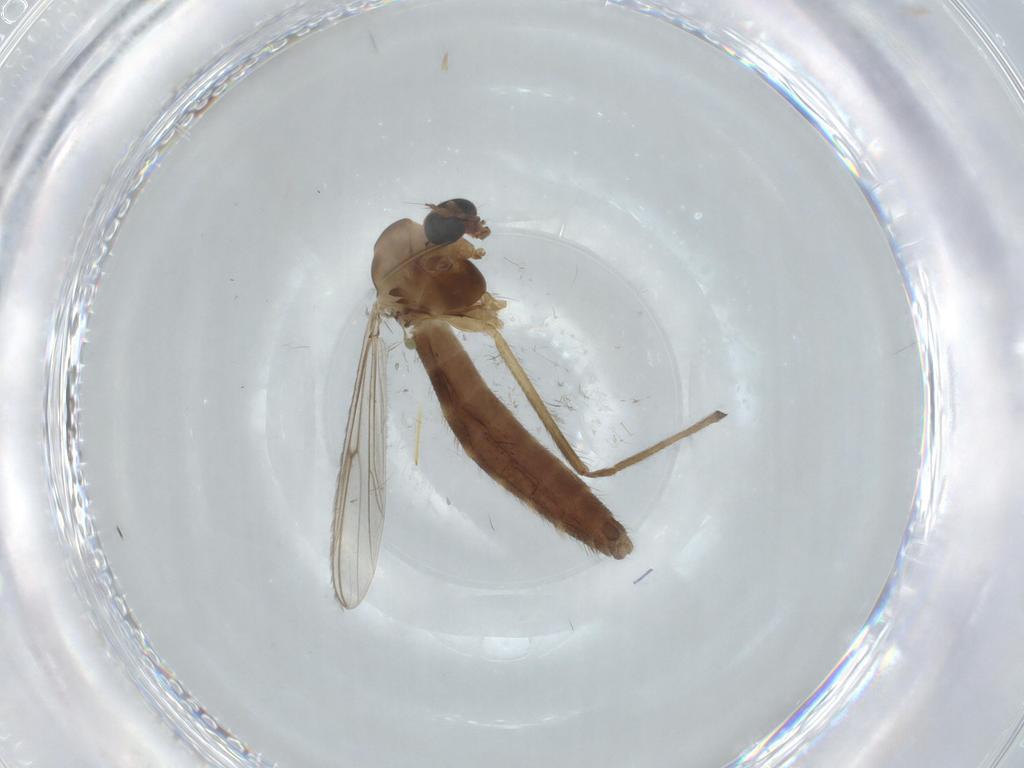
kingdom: Animalia
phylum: Arthropoda
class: Insecta
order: Diptera
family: Chironomidae
